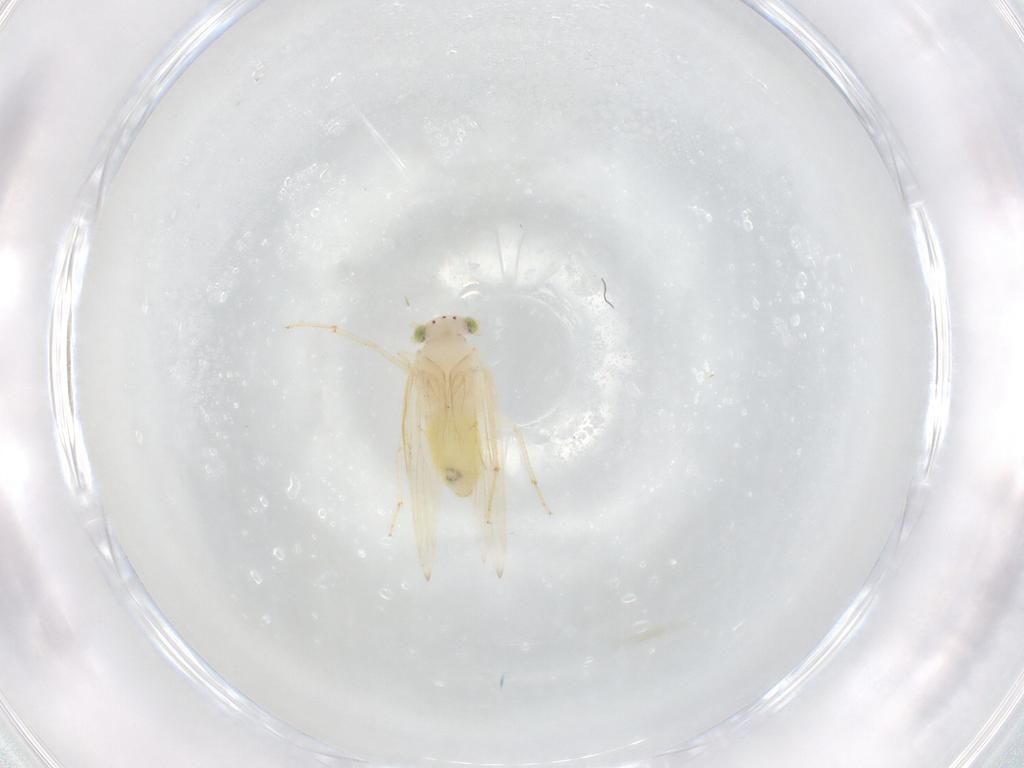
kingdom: Animalia
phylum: Arthropoda
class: Insecta
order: Psocodea
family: Lepidopsocidae
